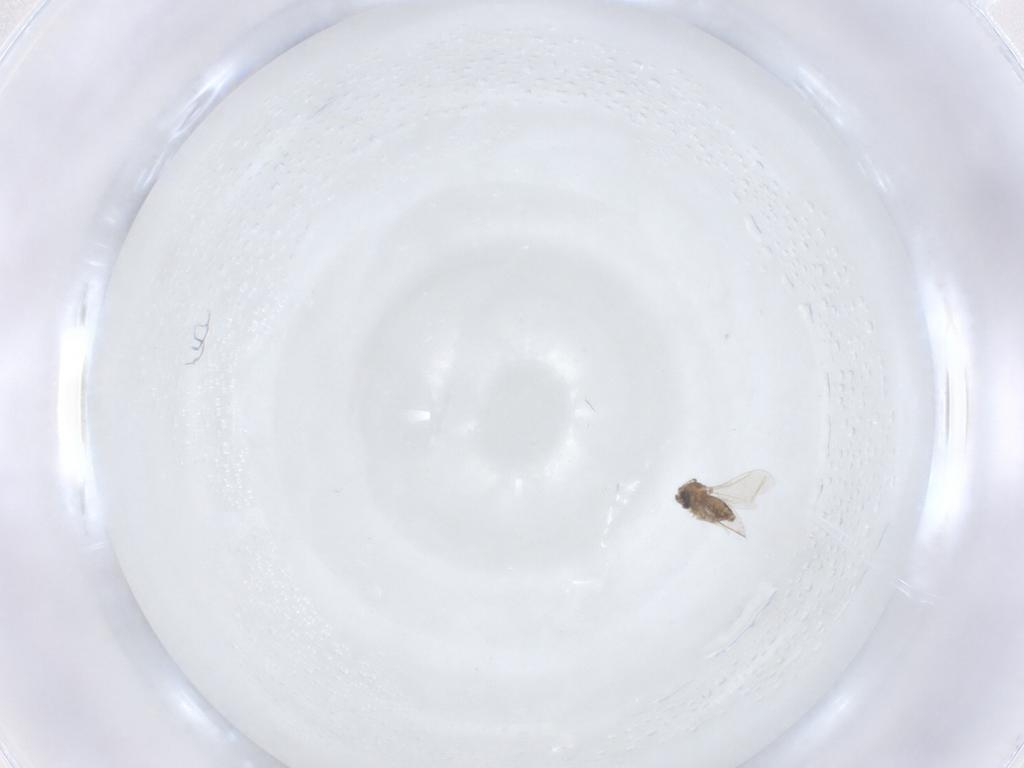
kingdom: Animalia
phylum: Arthropoda
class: Insecta
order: Diptera
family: Cecidomyiidae
